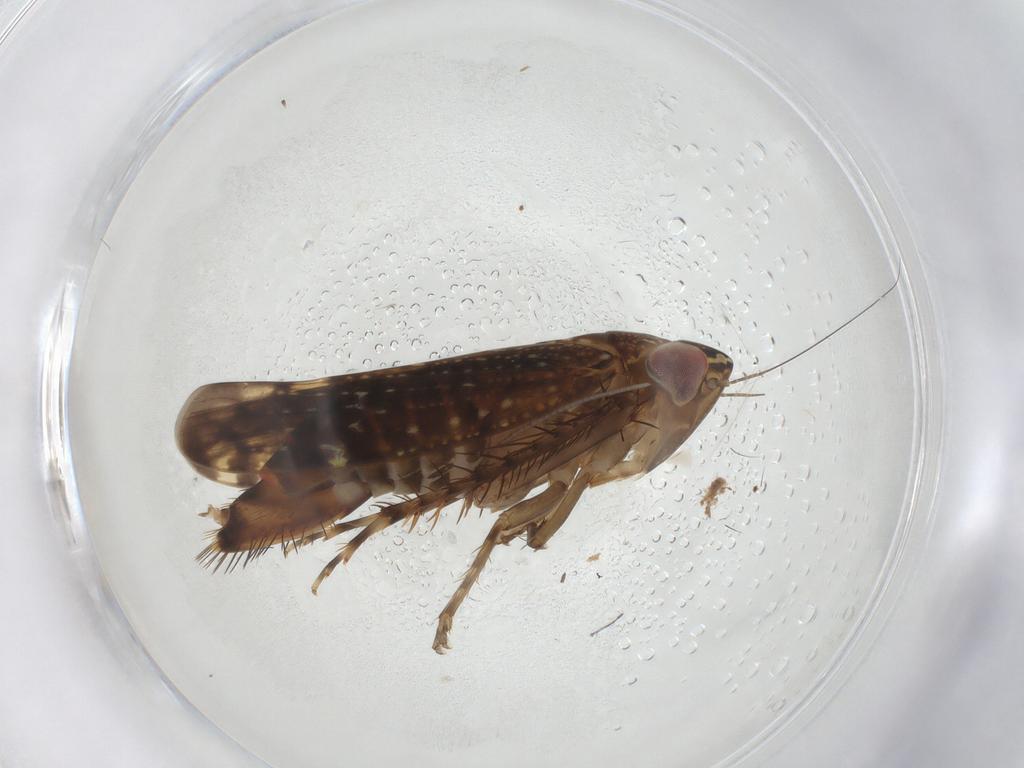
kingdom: Animalia
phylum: Arthropoda
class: Insecta
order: Hemiptera
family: Cicadellidae
